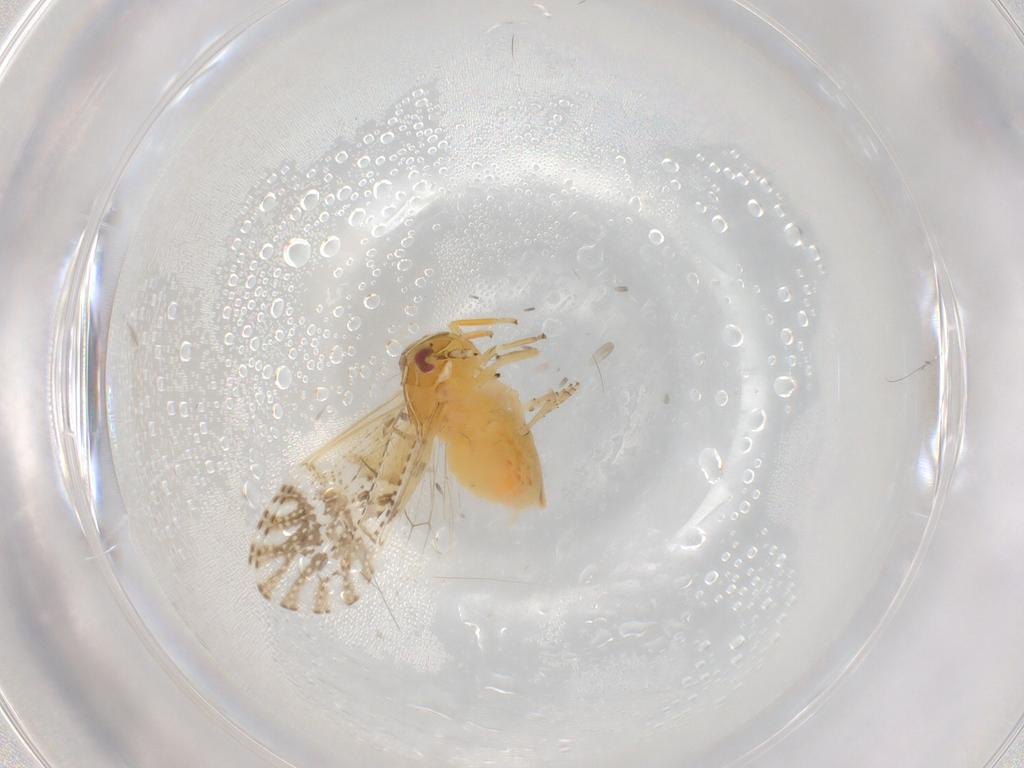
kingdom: Animalia
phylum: Arthropoda
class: Insecta
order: Hemiptera
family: Delphacidae
